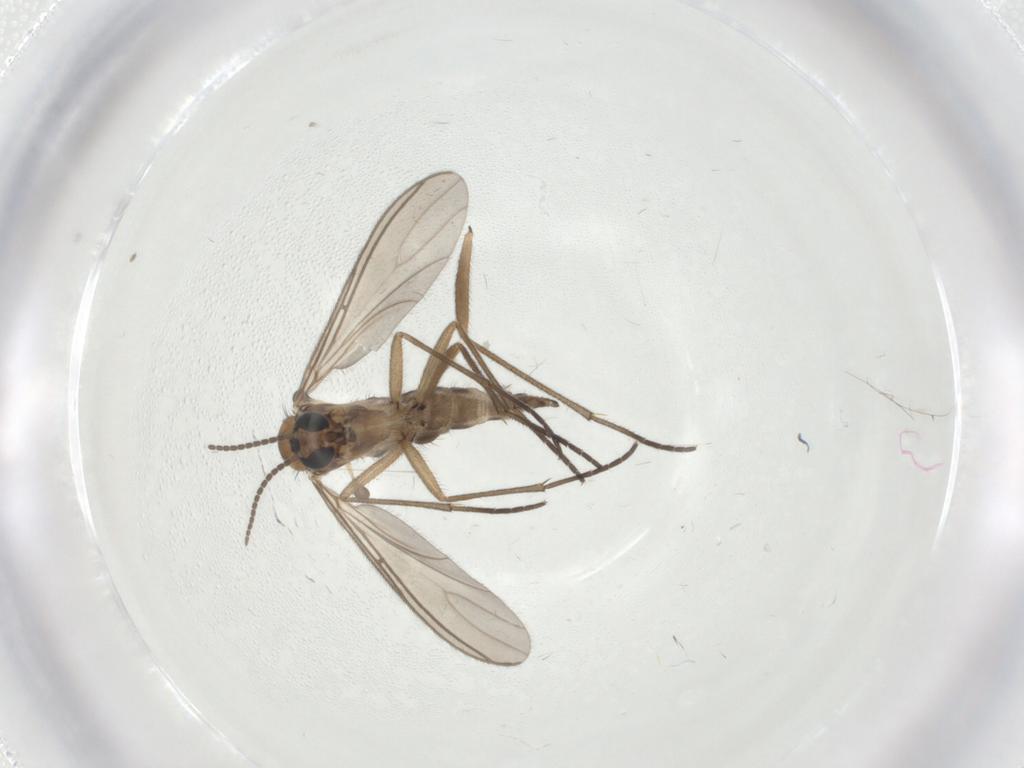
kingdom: Animalia
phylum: Arthropoda
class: Insecta
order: Diptera
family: Sciaridae
